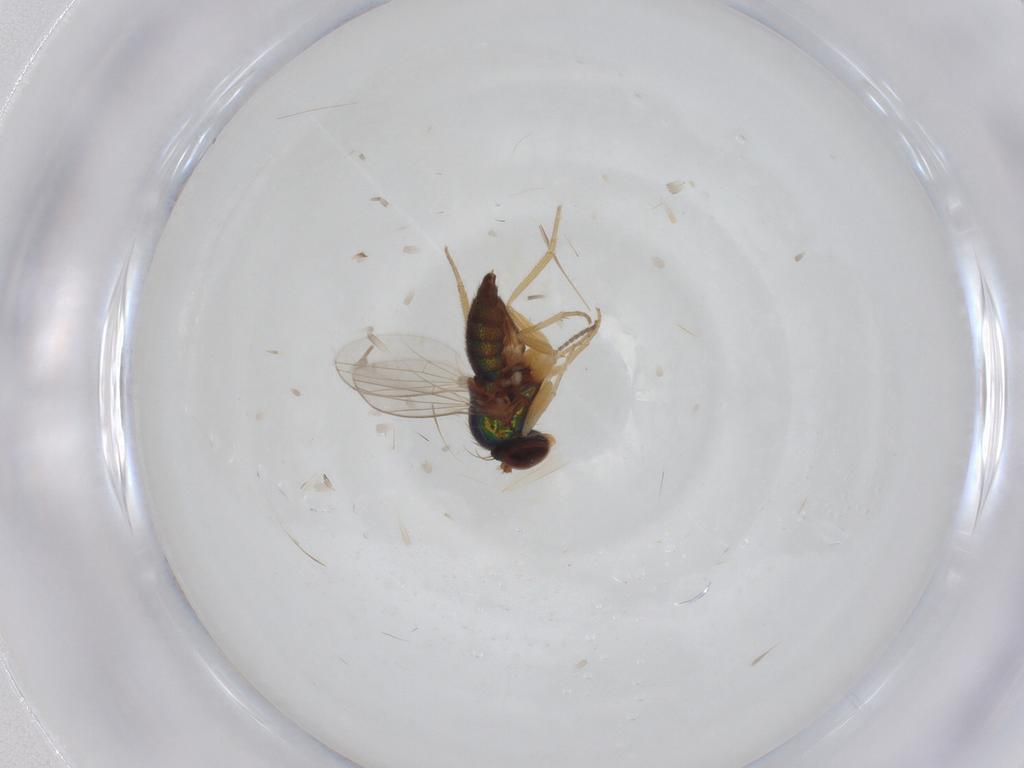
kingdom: Animalia
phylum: Arthropoda
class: Insecta
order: Diptera
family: Dolichopodidae
